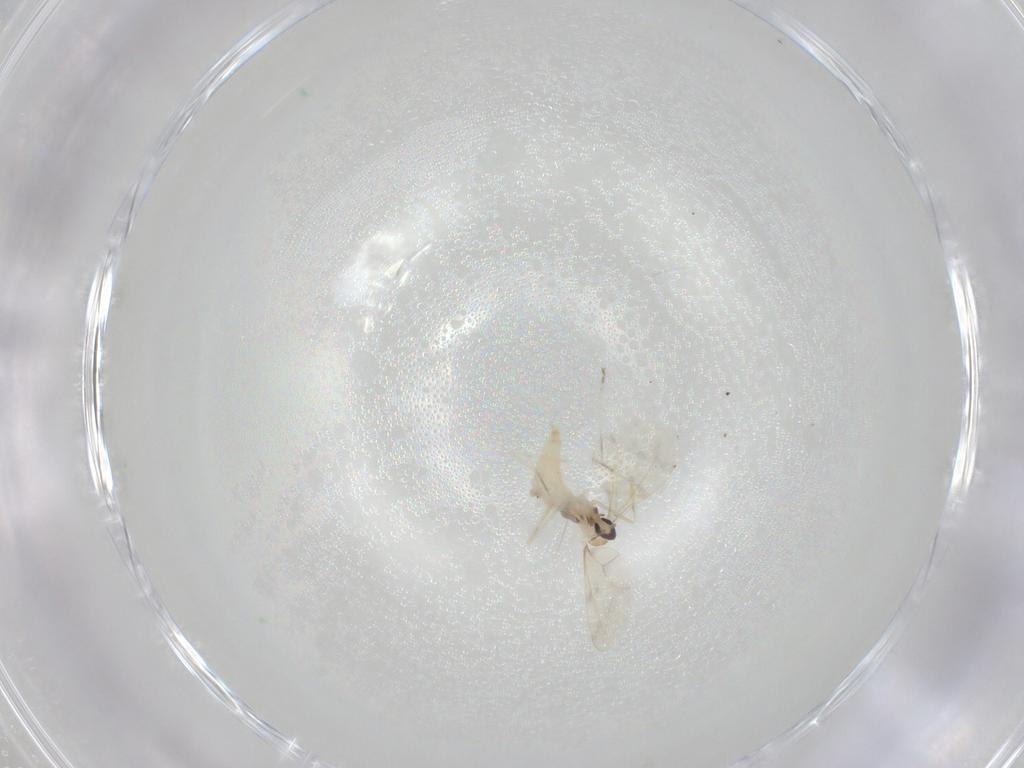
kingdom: Animalia
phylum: Arthropoda
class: Insecta
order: Diptera
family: Cecidomyiidae
